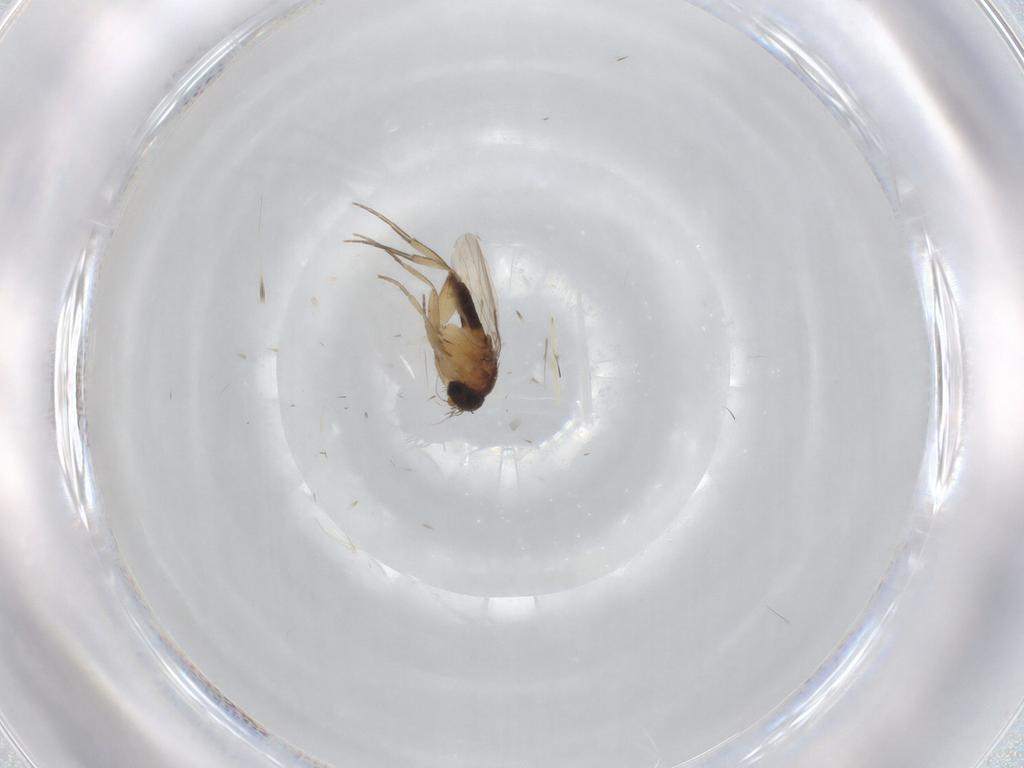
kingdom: Animalia
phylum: Arthropoda
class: Insecta
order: Diptera
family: Phoridae
